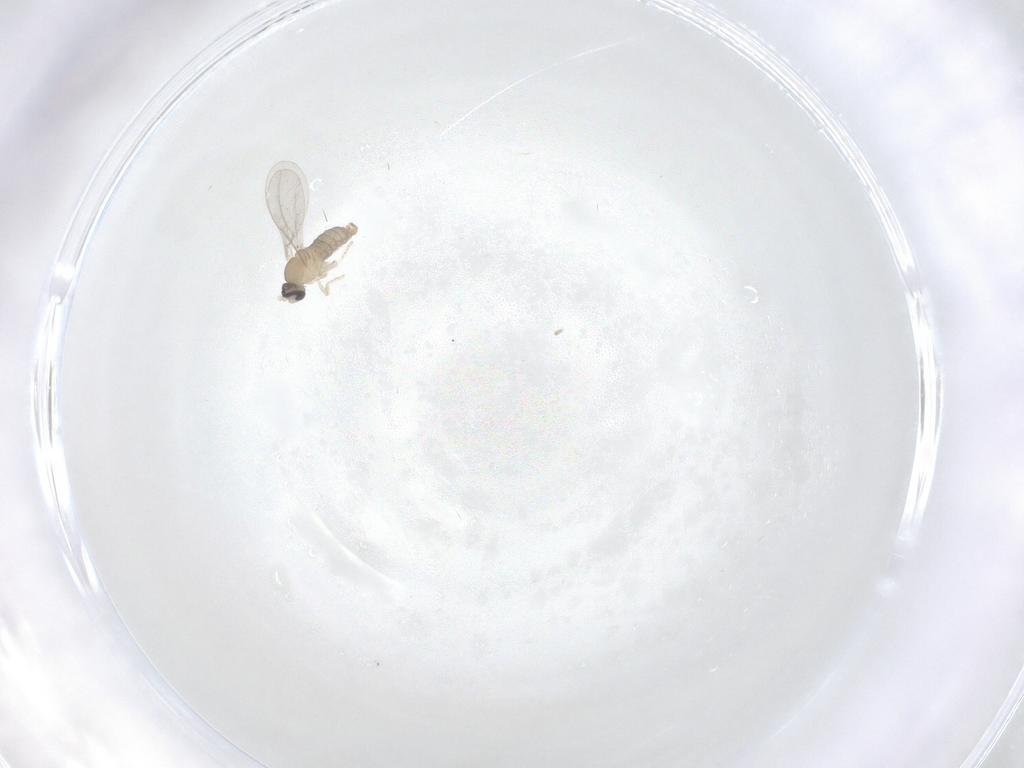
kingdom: Animalia
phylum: Arthropoda
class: Insecta
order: Diptera
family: Cecidomyiidae
